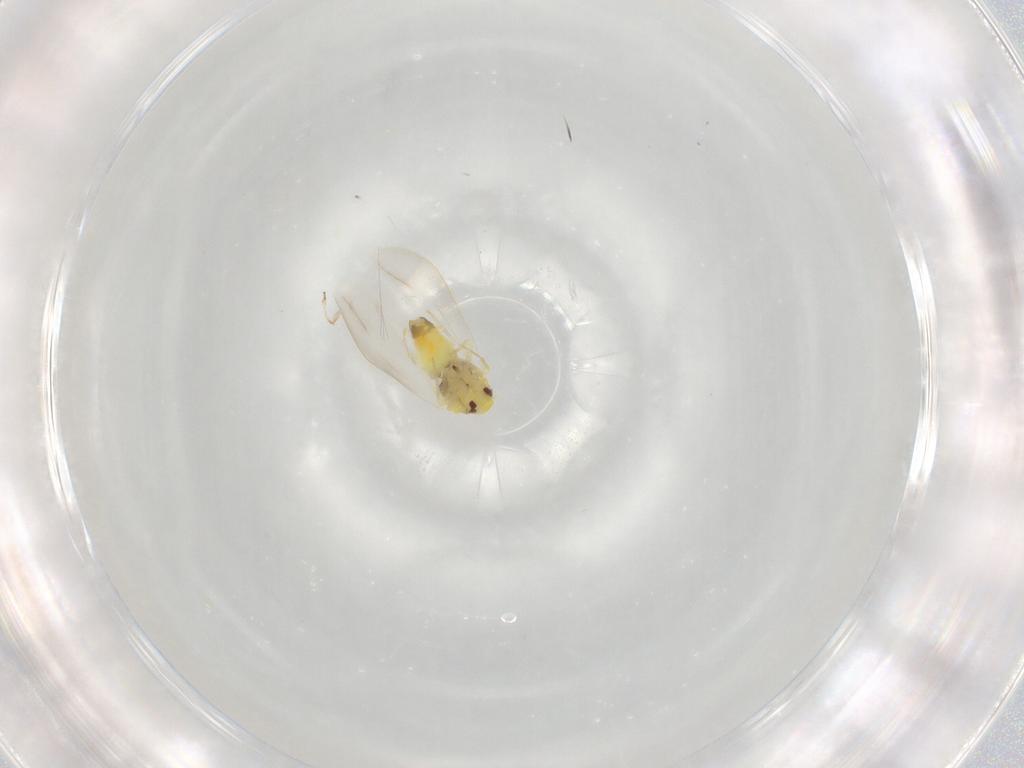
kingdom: Animalia
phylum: Arthropoda
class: Insecta
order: Hemiptera
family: Aleyrodidae
